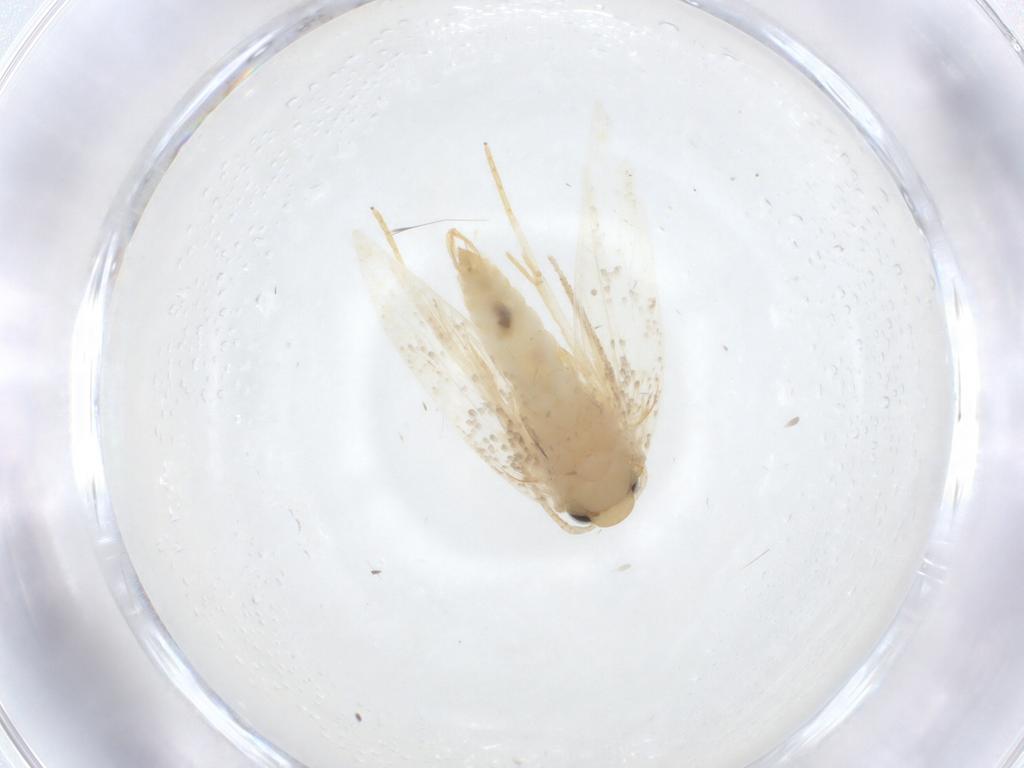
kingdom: Animalia
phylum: Arthropoda
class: Insecta
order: Lepidoptera
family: Erebidae
